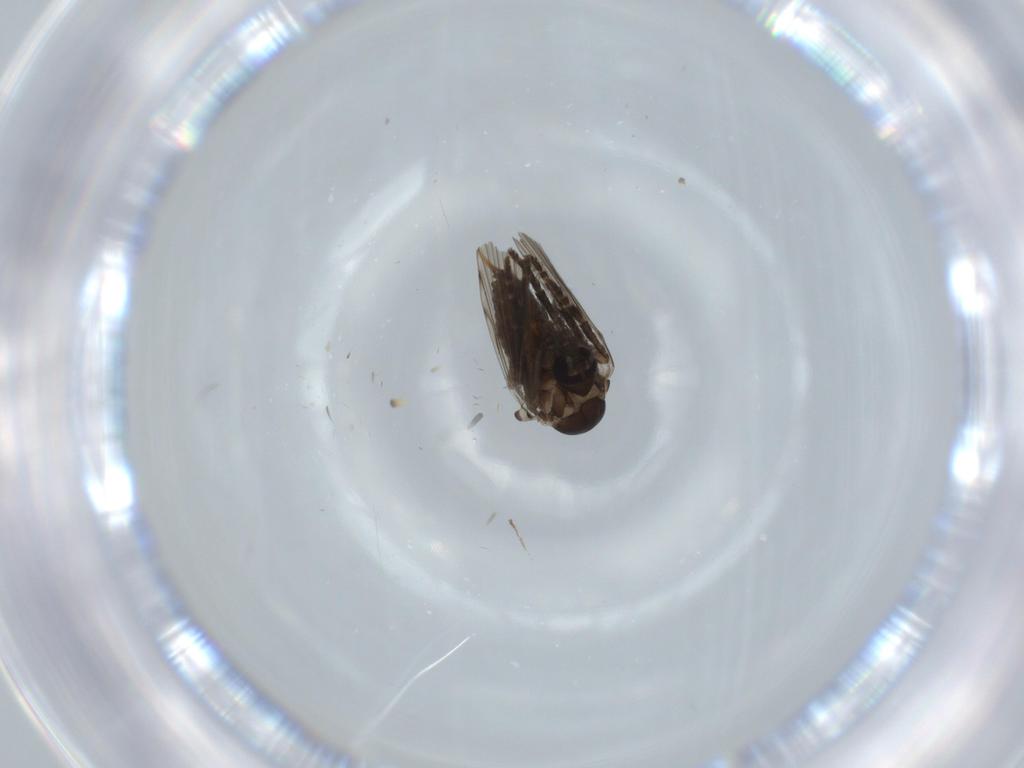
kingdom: Animalia
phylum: Arthropoda
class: Insecta
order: Diptera
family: Psychodidae
